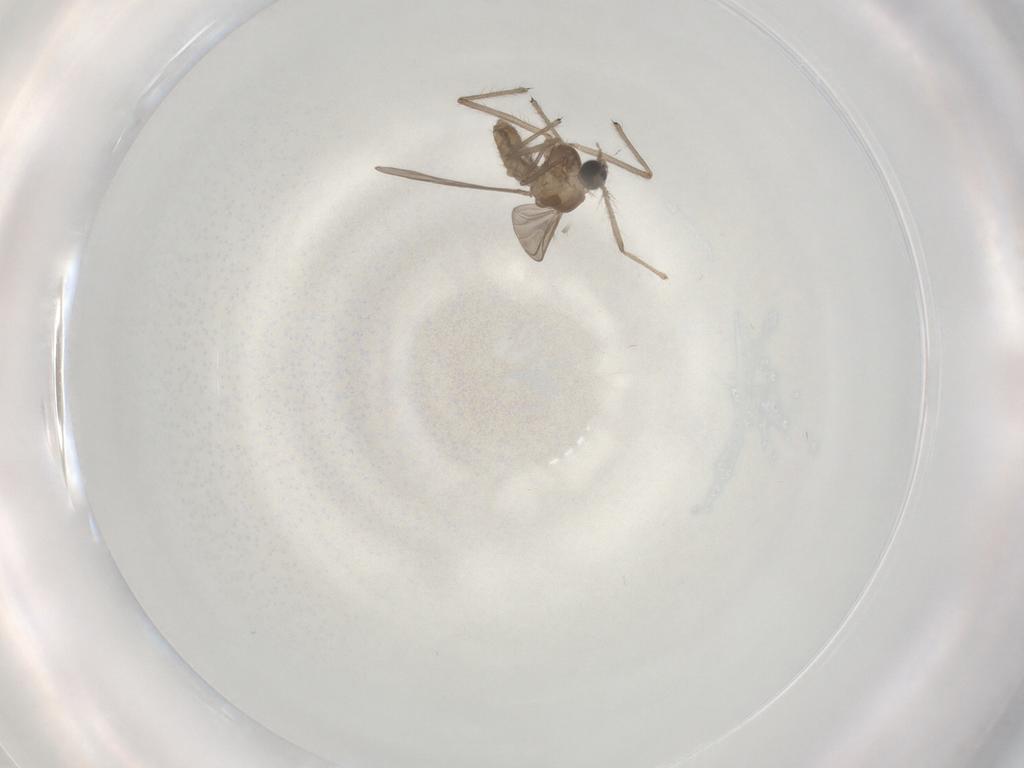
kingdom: Animalia
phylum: Arthropoda
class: Insecta
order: Diptera
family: Chironomidae
